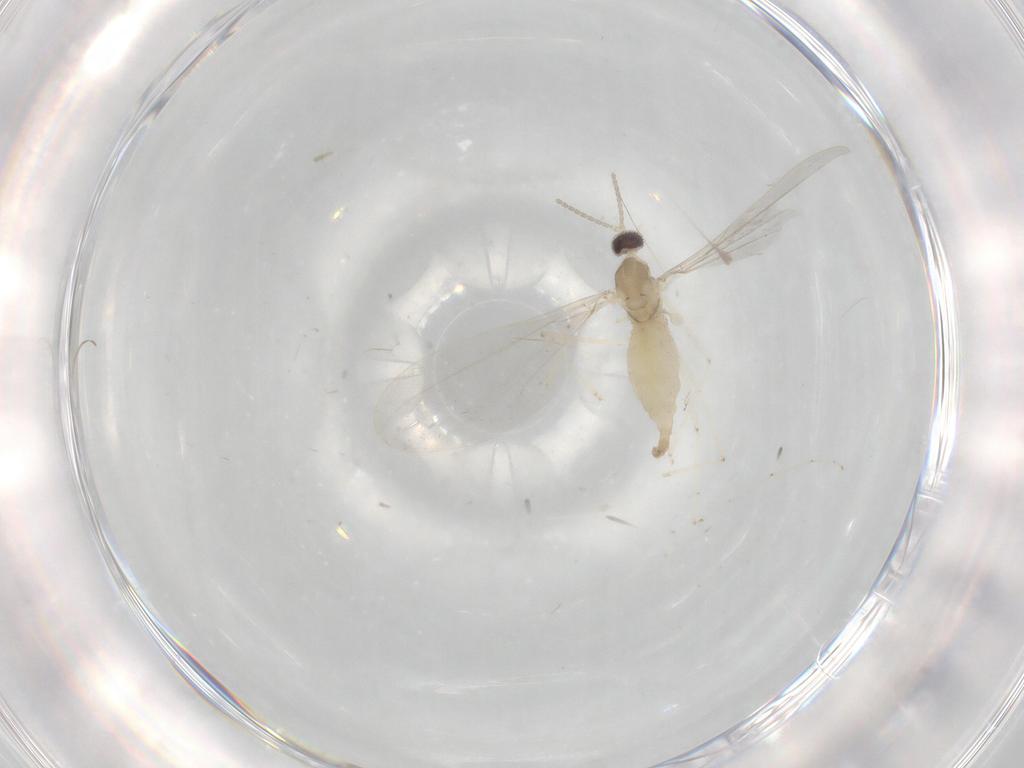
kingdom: Animalia
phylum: Arthropoda
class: Insecta
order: Diptera
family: Cecidomyiidae
